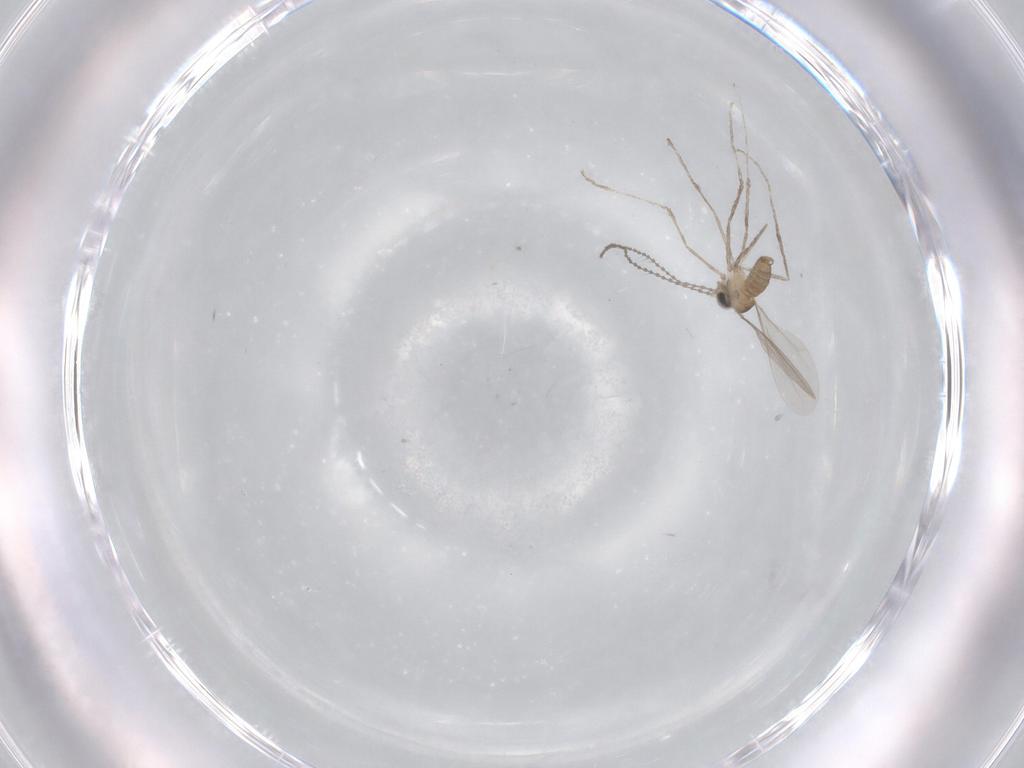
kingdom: Animalia
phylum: Arthropoda
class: Insecta
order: Diptera
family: Cecidomyiidae
